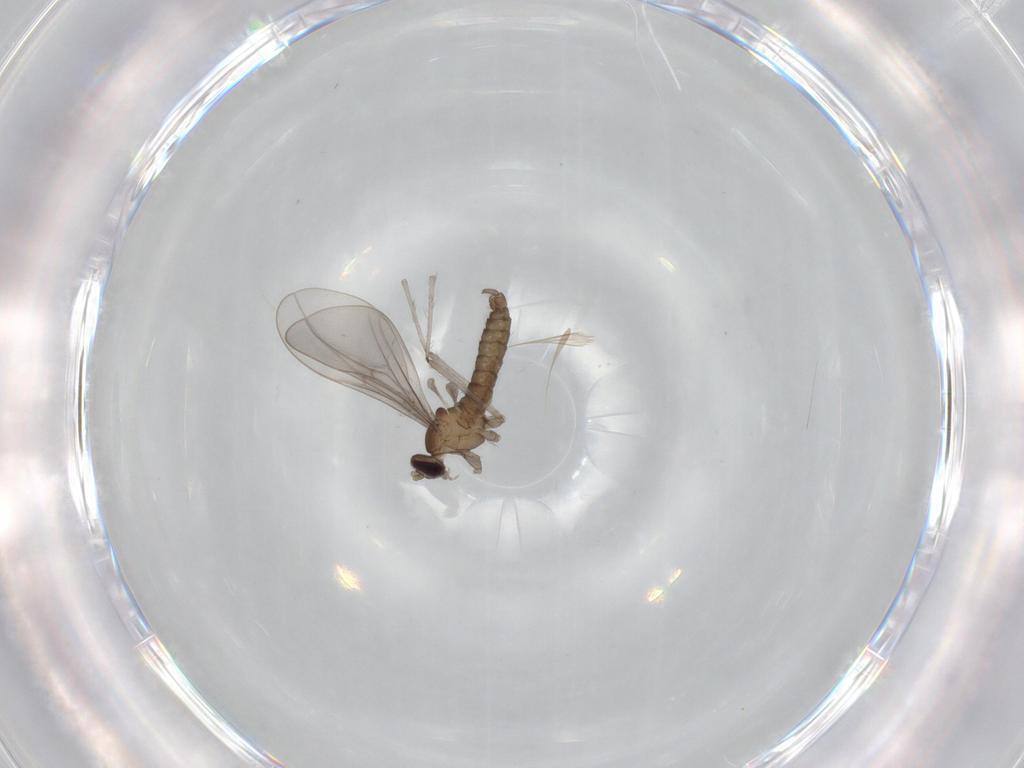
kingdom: Animalia
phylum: Arthropoda
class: Insecta
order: Diptera
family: Cecidomyiidae
